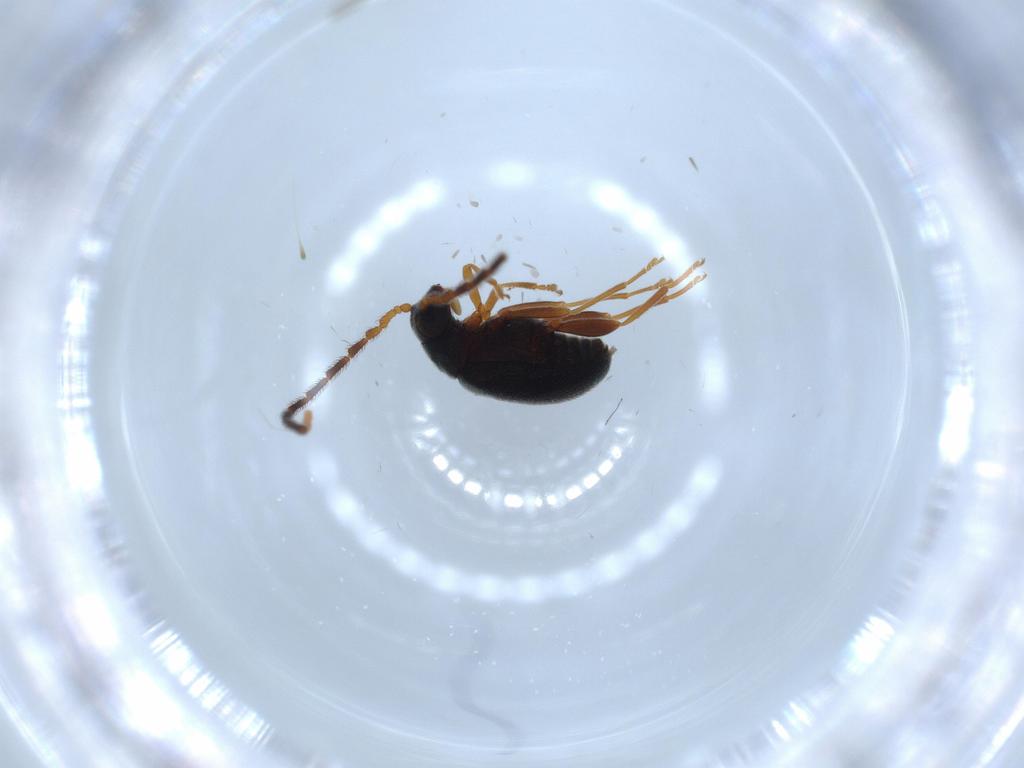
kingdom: Animalia
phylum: Arthropoda
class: Insecta
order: Coleoptera
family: Aderidae
